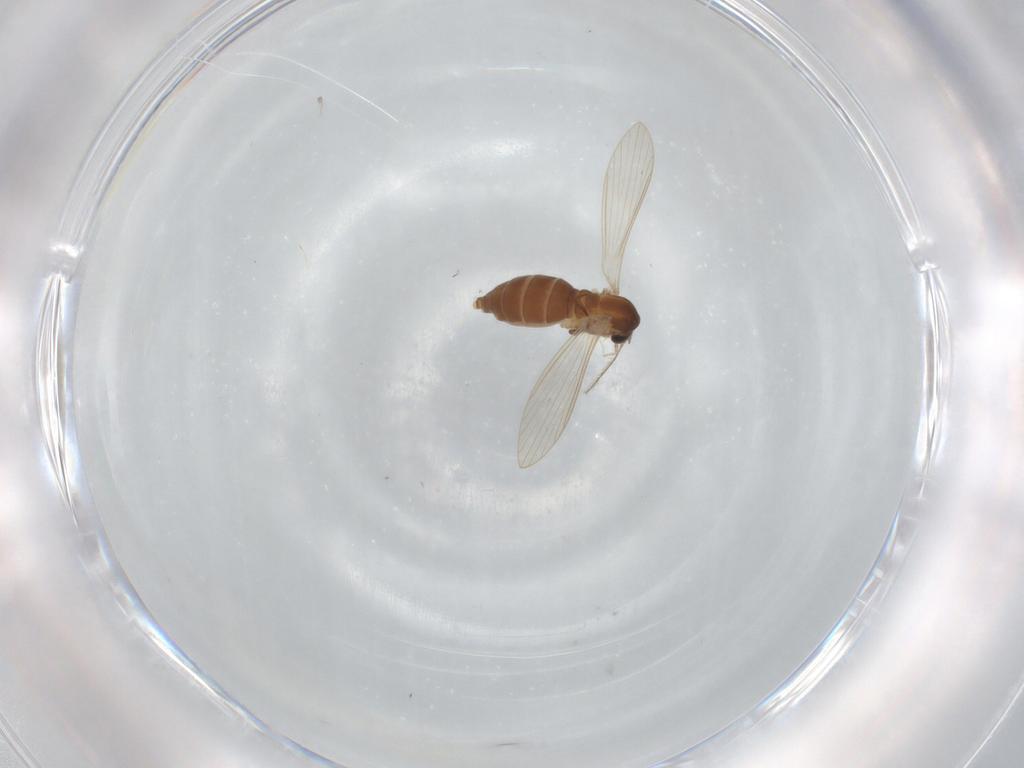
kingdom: Animalia
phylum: Arthropoda
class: Insecta
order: Diptera
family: Psychodidae
